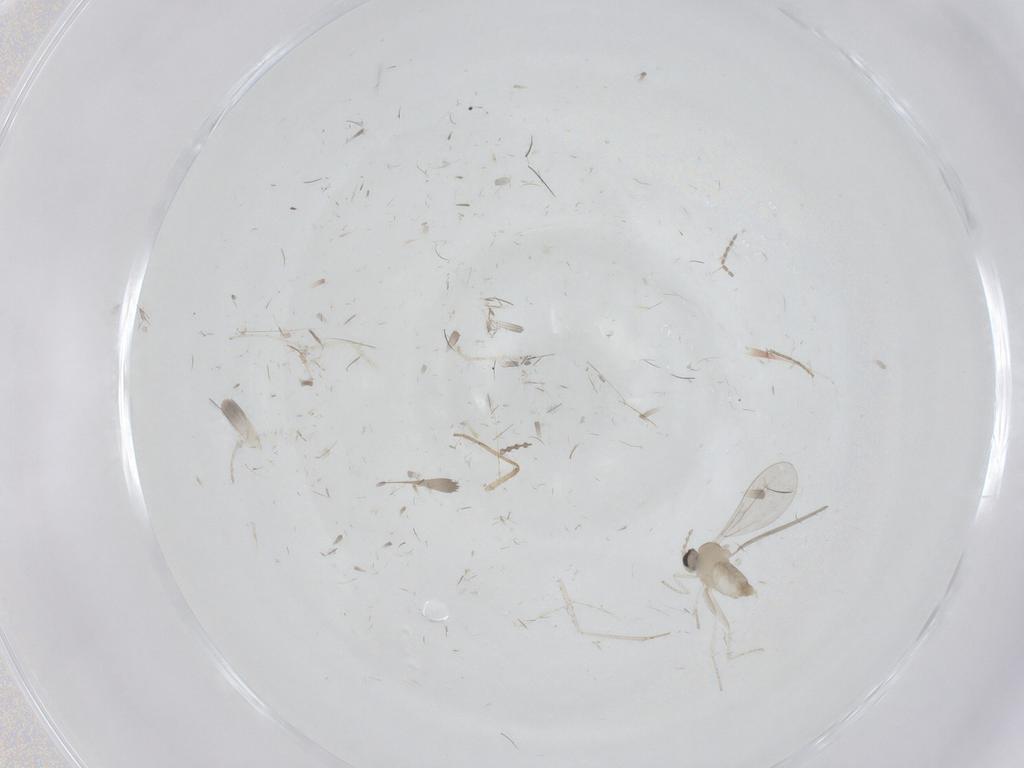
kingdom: Animalia
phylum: Arthropoda
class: Insecta
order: Diptera
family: Cecidomyiidae
